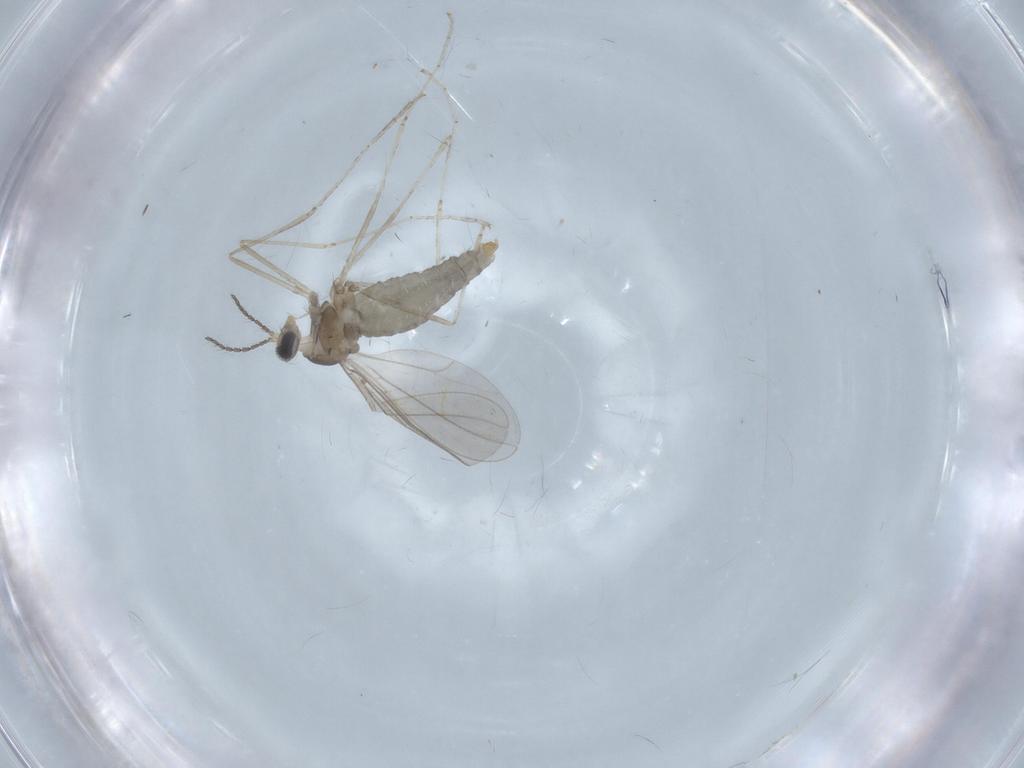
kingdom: Animalia
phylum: Arthropoda
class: Insecta
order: Diptera
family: Cecidomyiidae
